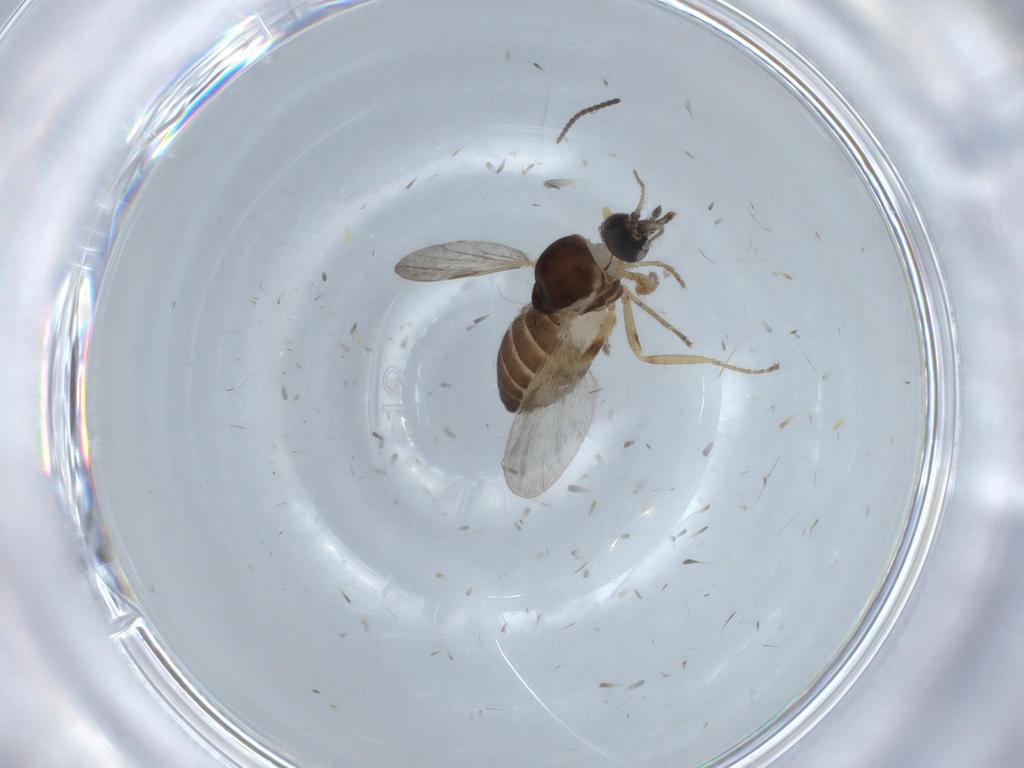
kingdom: Animalia
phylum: Arthropoda
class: Insecta
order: Diptera
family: Ceratopogonidae
